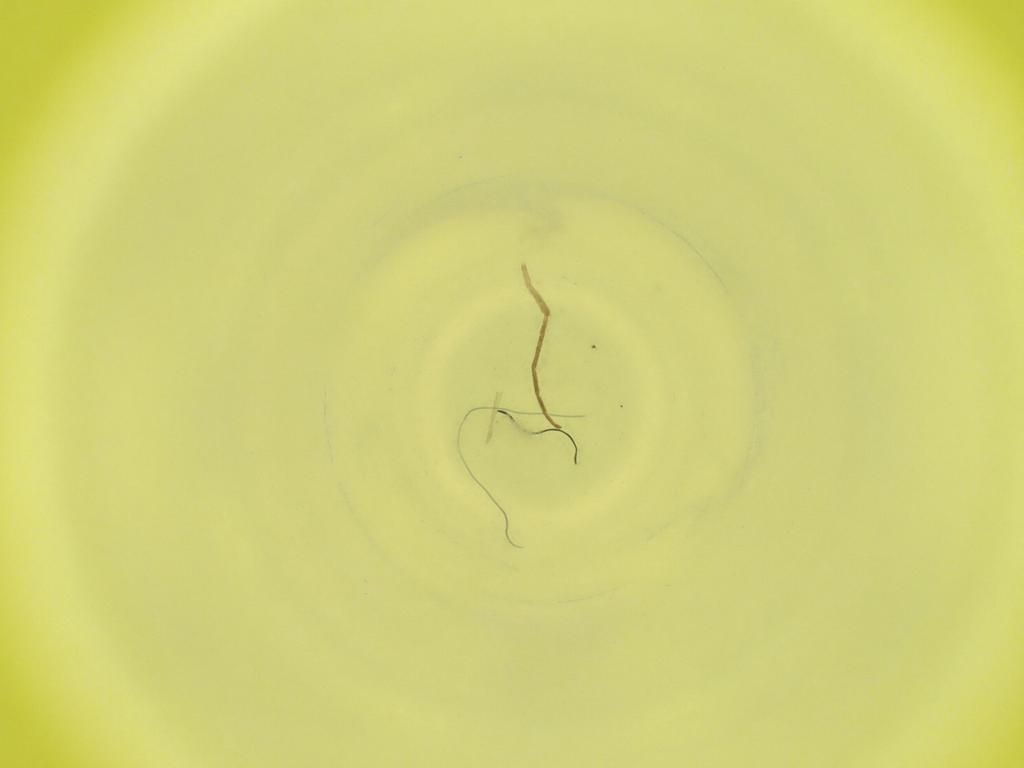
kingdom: Animalia
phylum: Arthropoda
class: Insecta
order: Diptera
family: Cecidomyiidae
